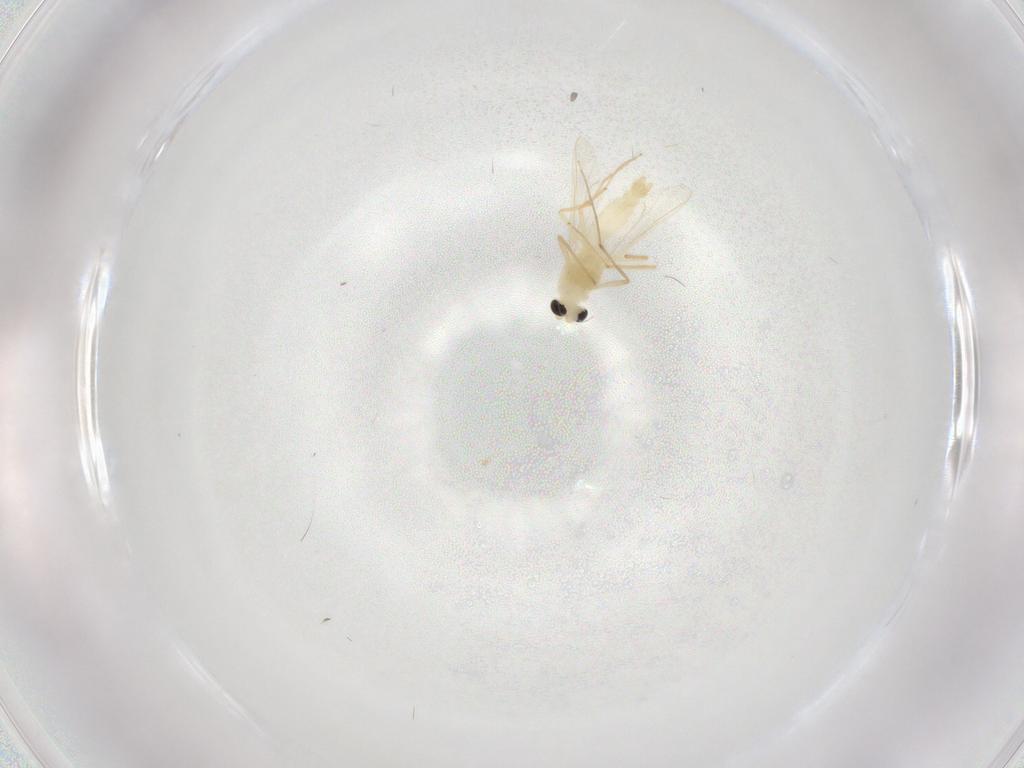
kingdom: Animalia
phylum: Arthropoda
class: Insecta
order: Diptera
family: Chironomidae
